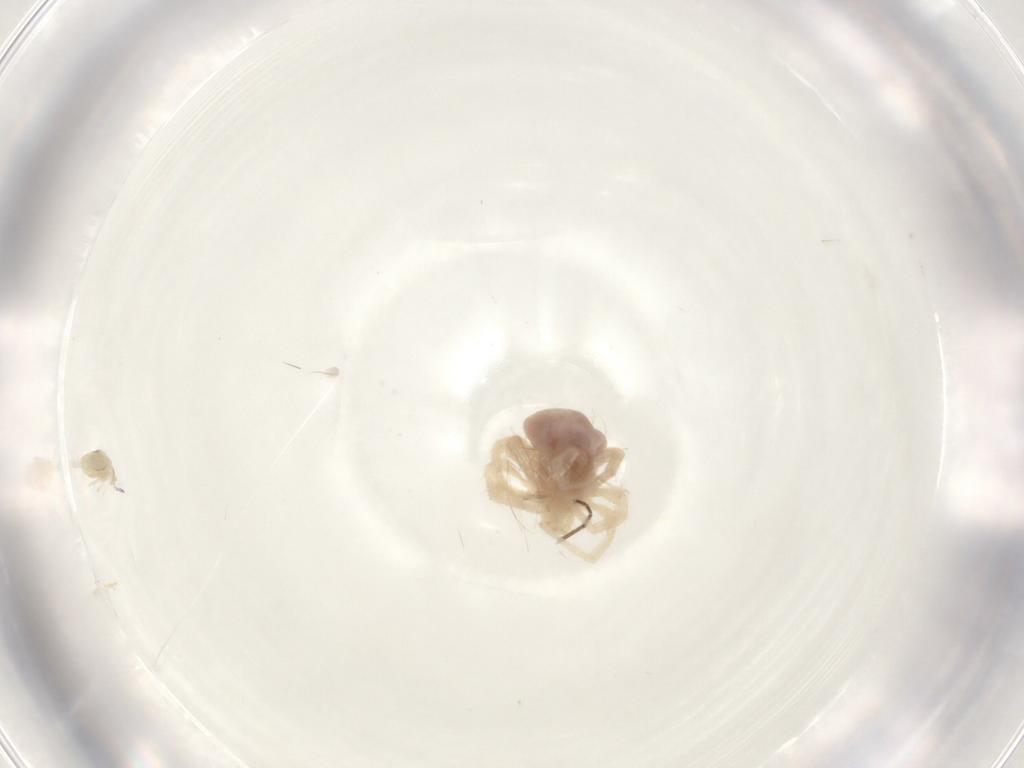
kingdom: Animalia
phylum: Arthropoda
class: Arachnida
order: Trombidiformes
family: Anystidae
